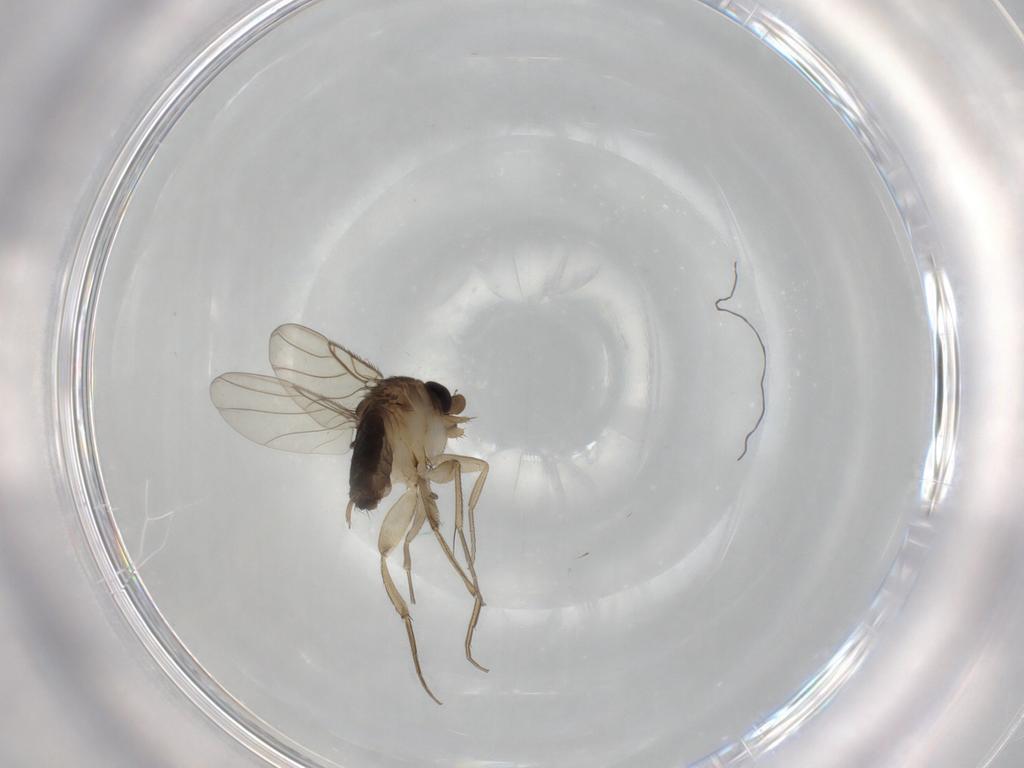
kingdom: Animalia
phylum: Arthropoda
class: Insecta
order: Diptera
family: Phoridae
